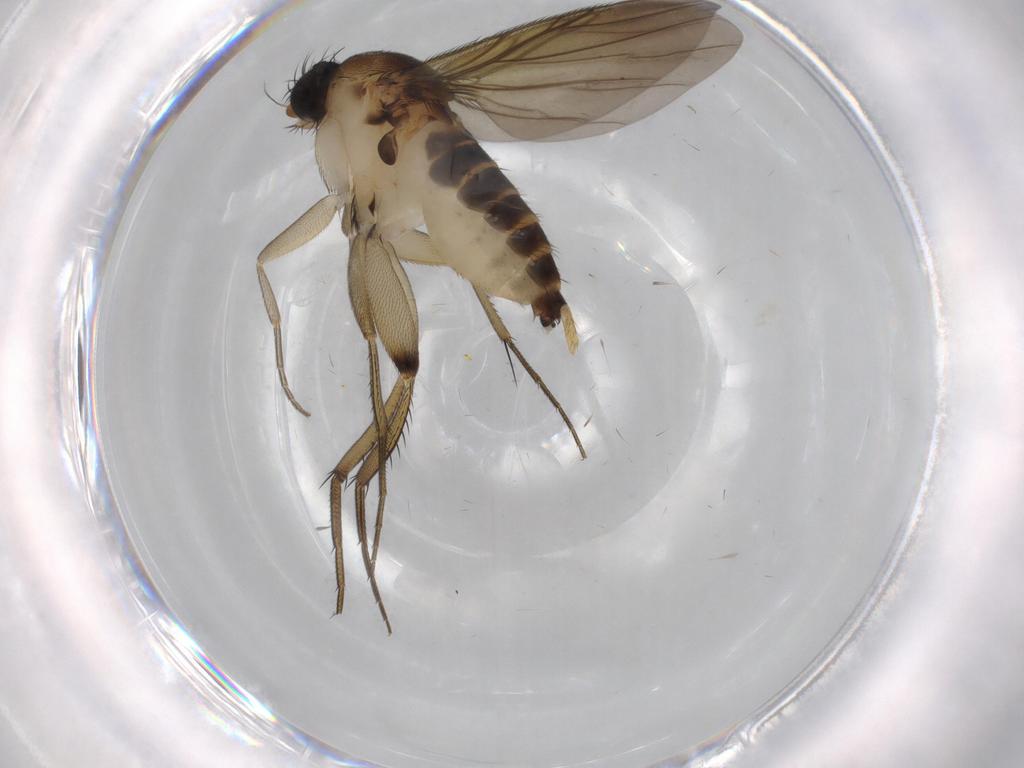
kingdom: Animalia
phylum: Arthropoda
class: Insecta
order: Diptera
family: Phoridae
